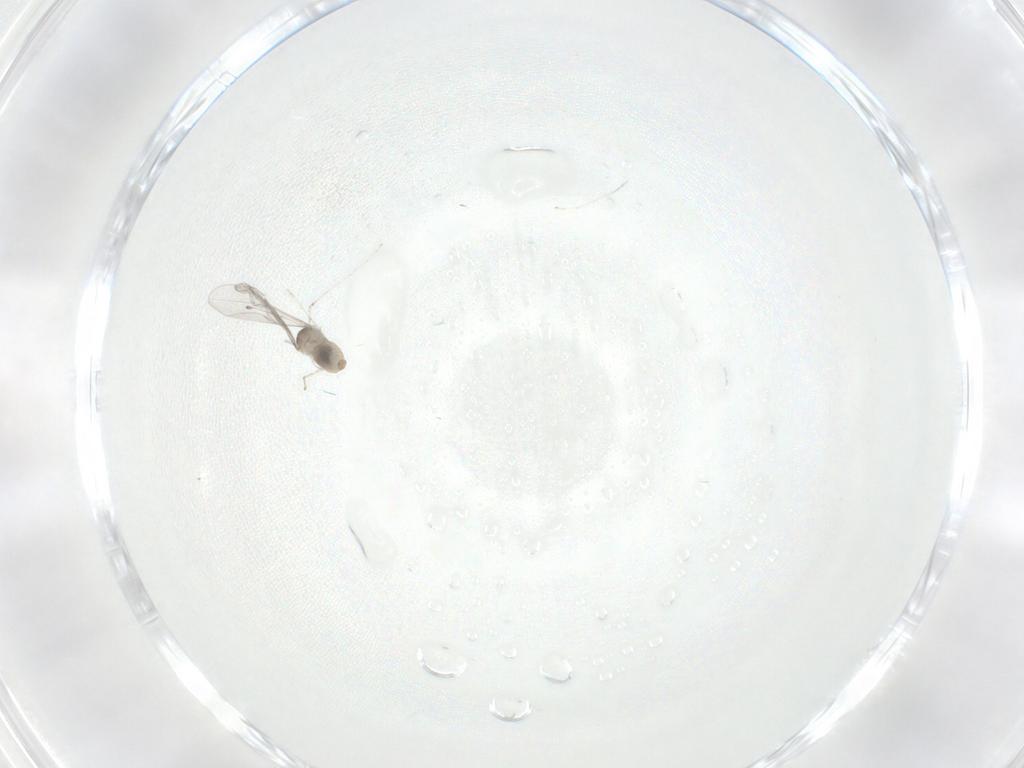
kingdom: Animalia
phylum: Arthropoda
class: Insecta
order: Diptera
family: Cecidomyiidae
